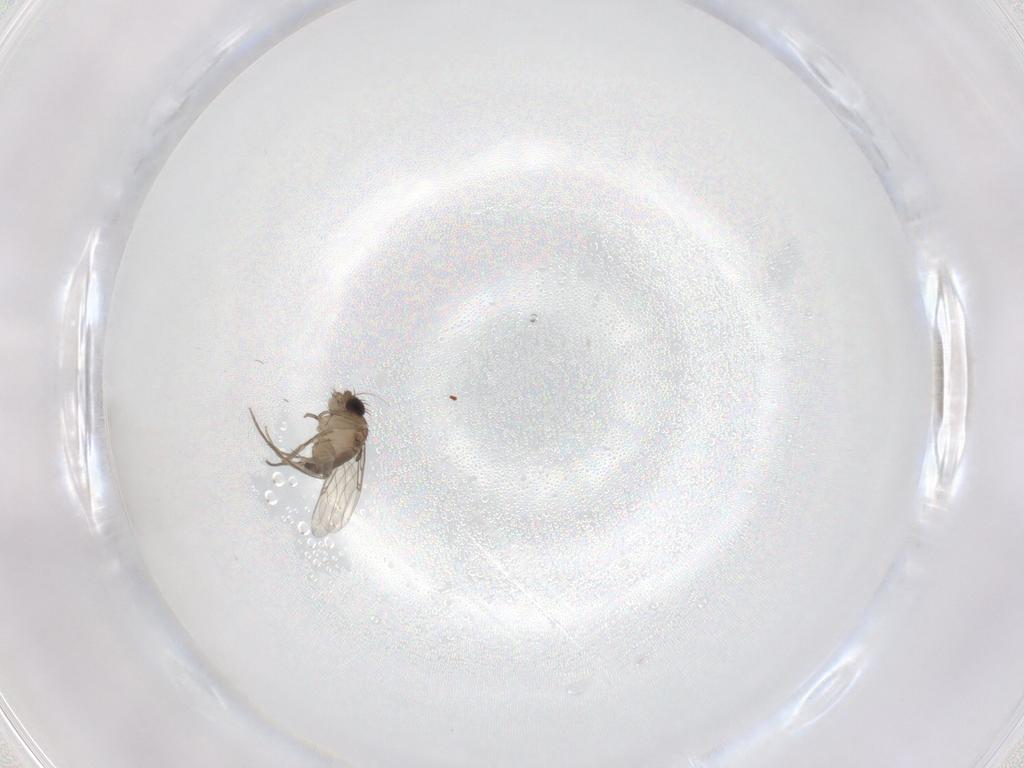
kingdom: Animalia
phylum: Arthropoda
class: Insecta
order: Diptera
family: Phoridae
